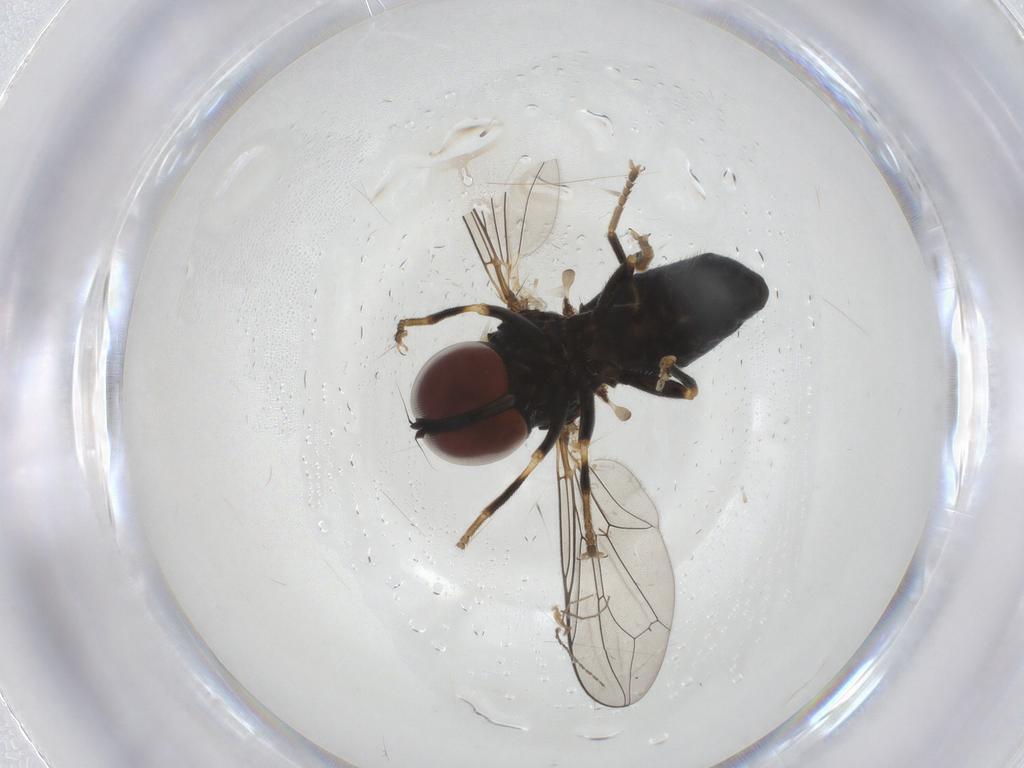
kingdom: Animalia
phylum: Arthropoda
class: Insecta
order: Diptera
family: Pipunculidae
